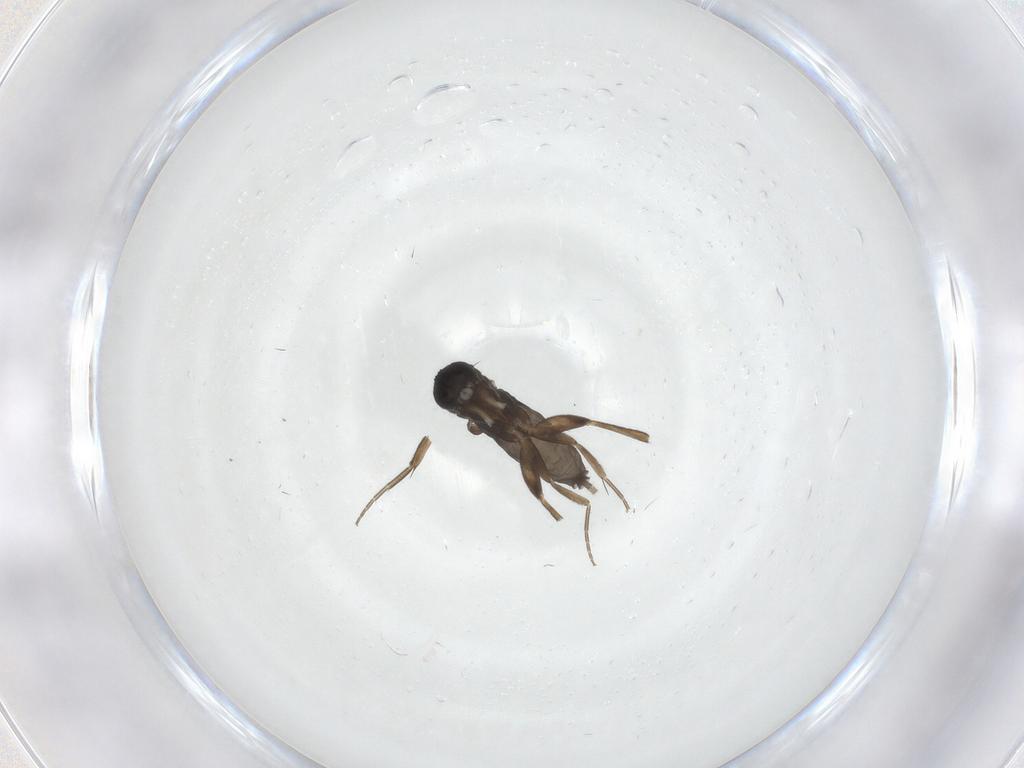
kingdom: Animalia
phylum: Arthropoda
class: Insecta
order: Diptera
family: Phoridae
